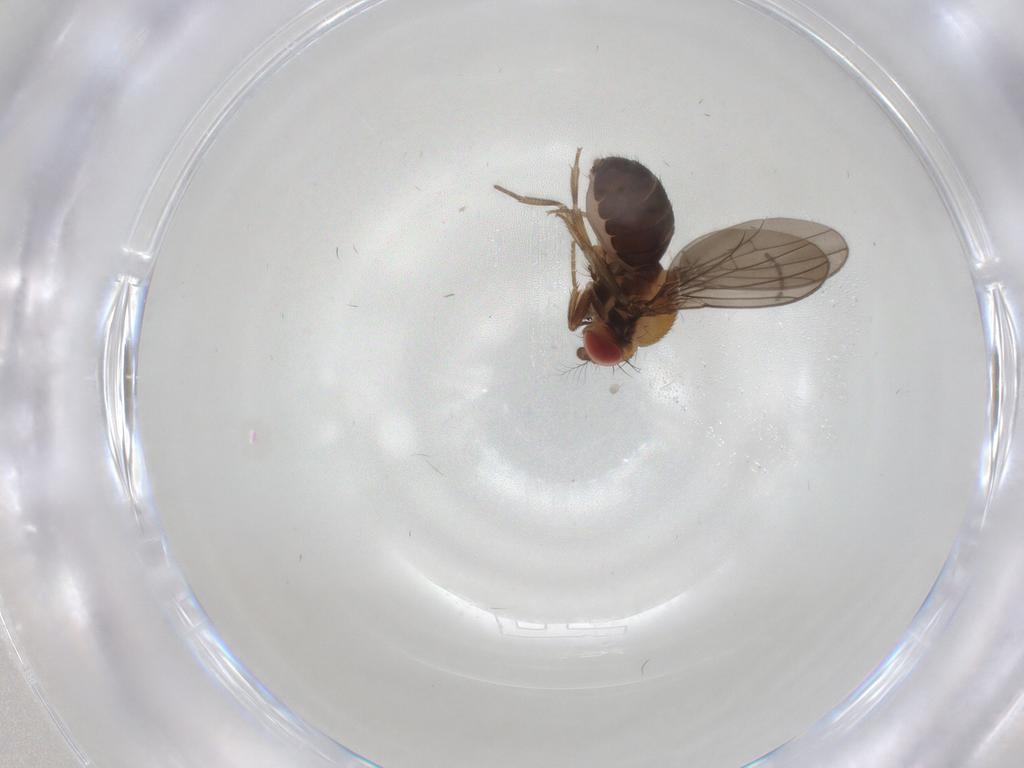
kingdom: Animalia
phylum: Arthropoda
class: Insecta
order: Diptera
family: Drosophilidae
